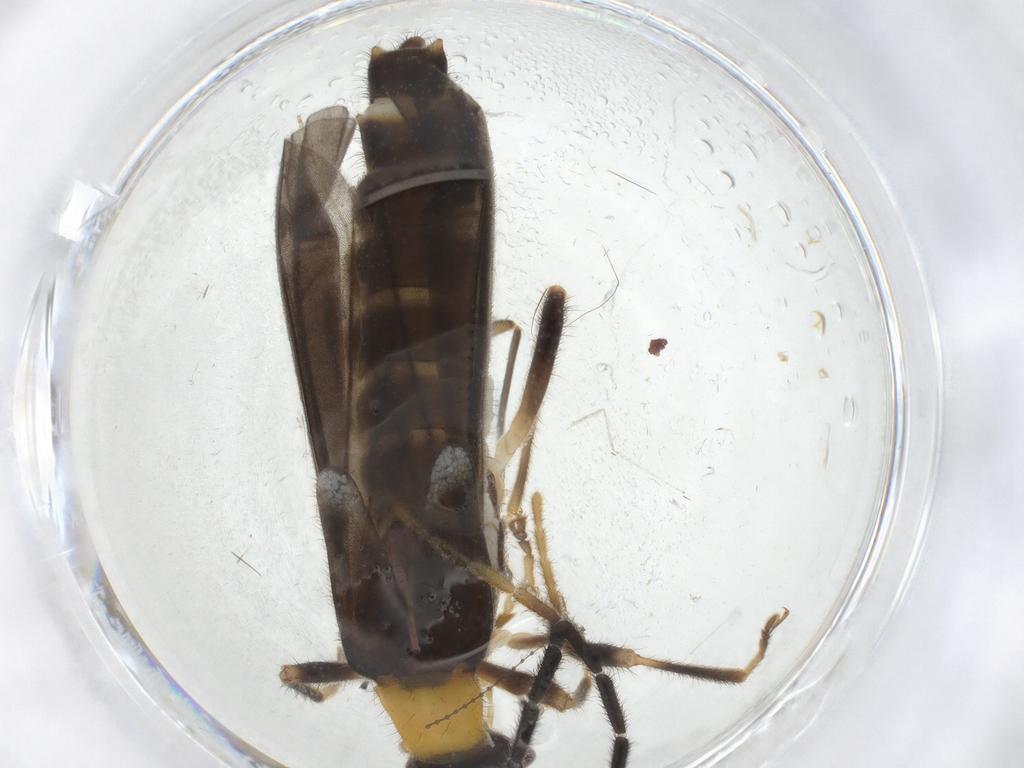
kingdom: Animalia
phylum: Arthropoda
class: Insecta
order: Coleoptera
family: Cantharidae
